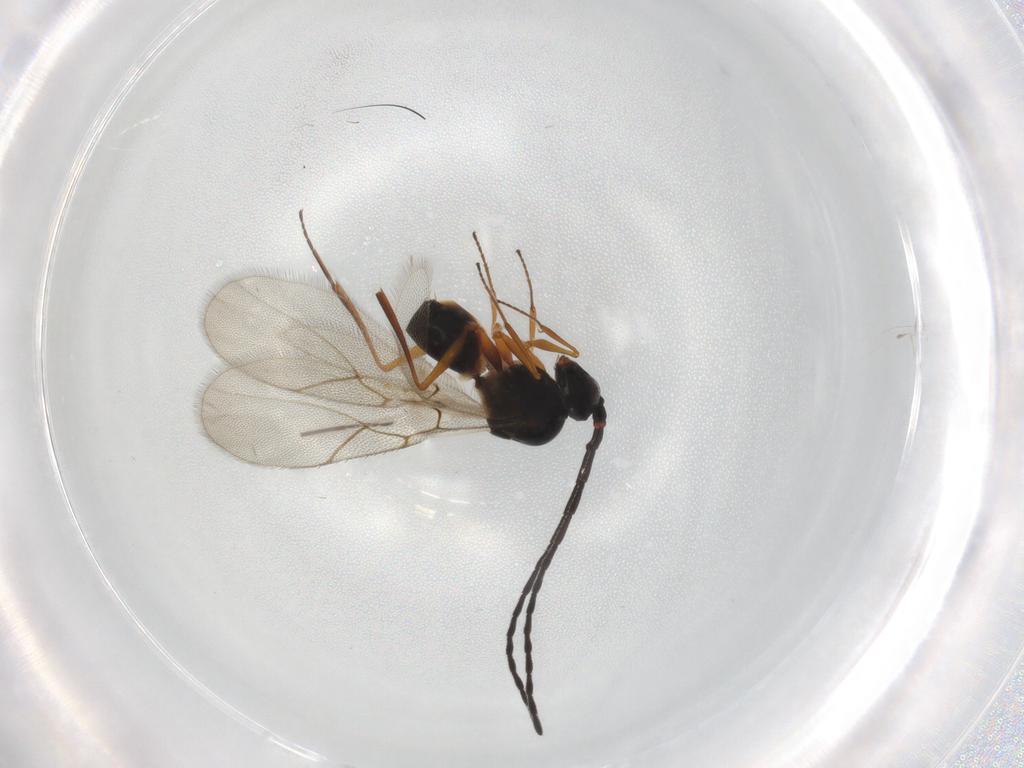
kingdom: Animalia
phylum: Arthropoda
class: Insecta
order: Hymenoptera
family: Figitidae
